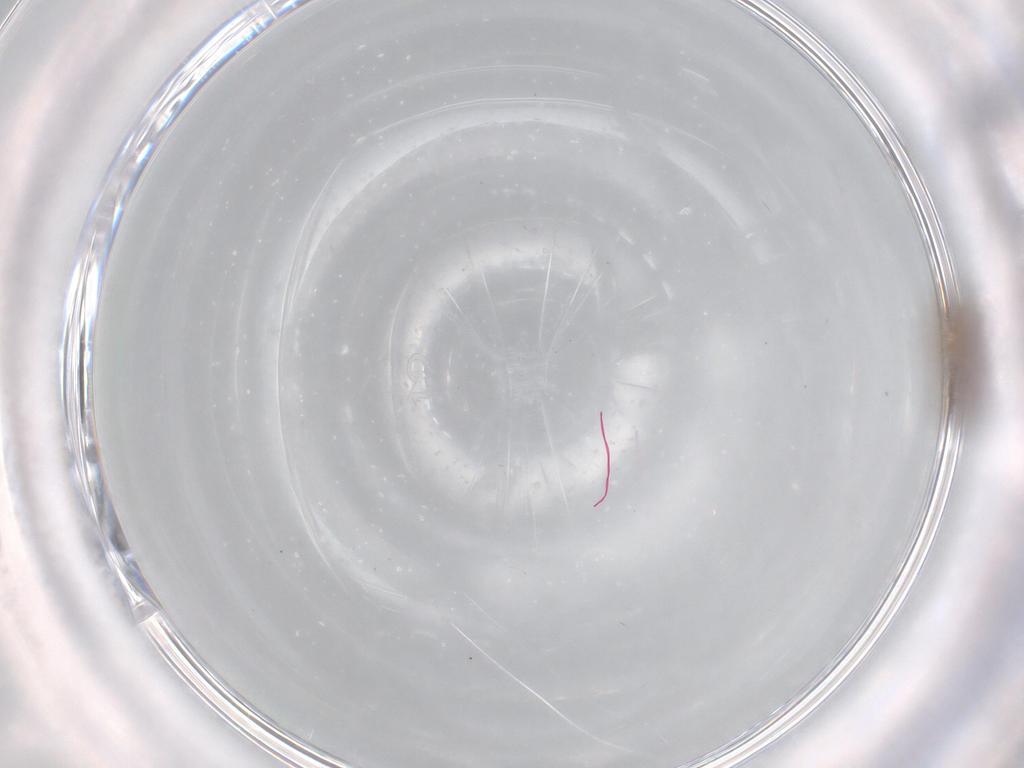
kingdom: Animalia
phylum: Arthropoda
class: Insecta
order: Diptera
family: Chironomidae
